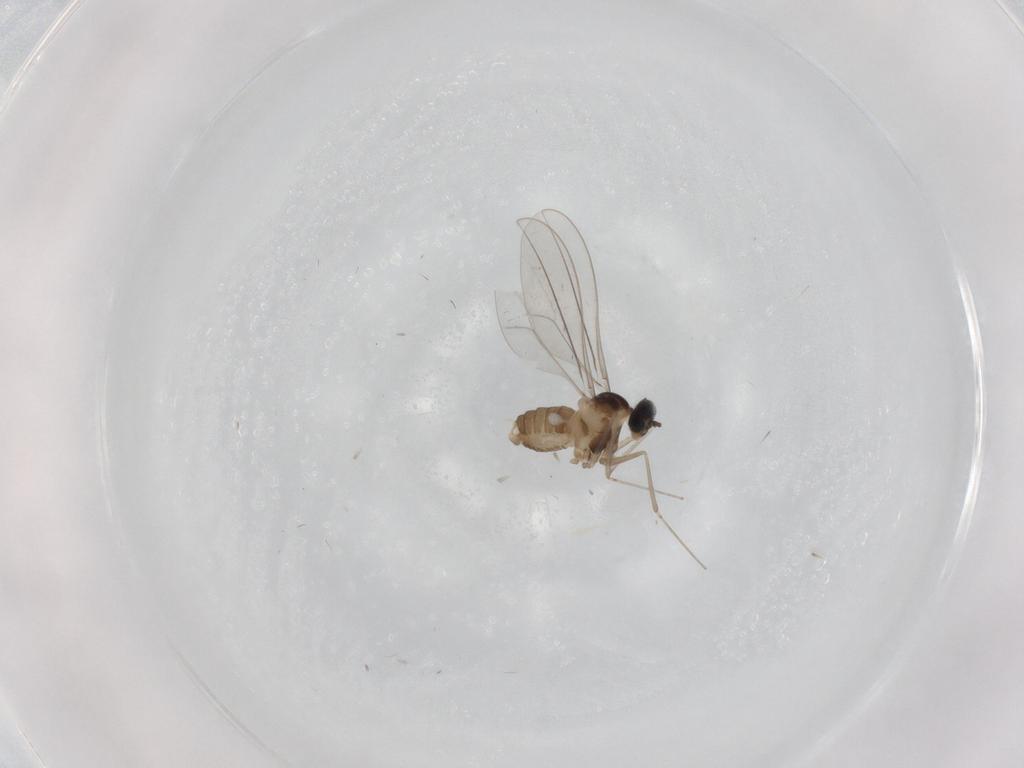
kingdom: Animalia
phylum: Arthropoda
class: Insecta
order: Diptera
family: Cecidomyiidae
